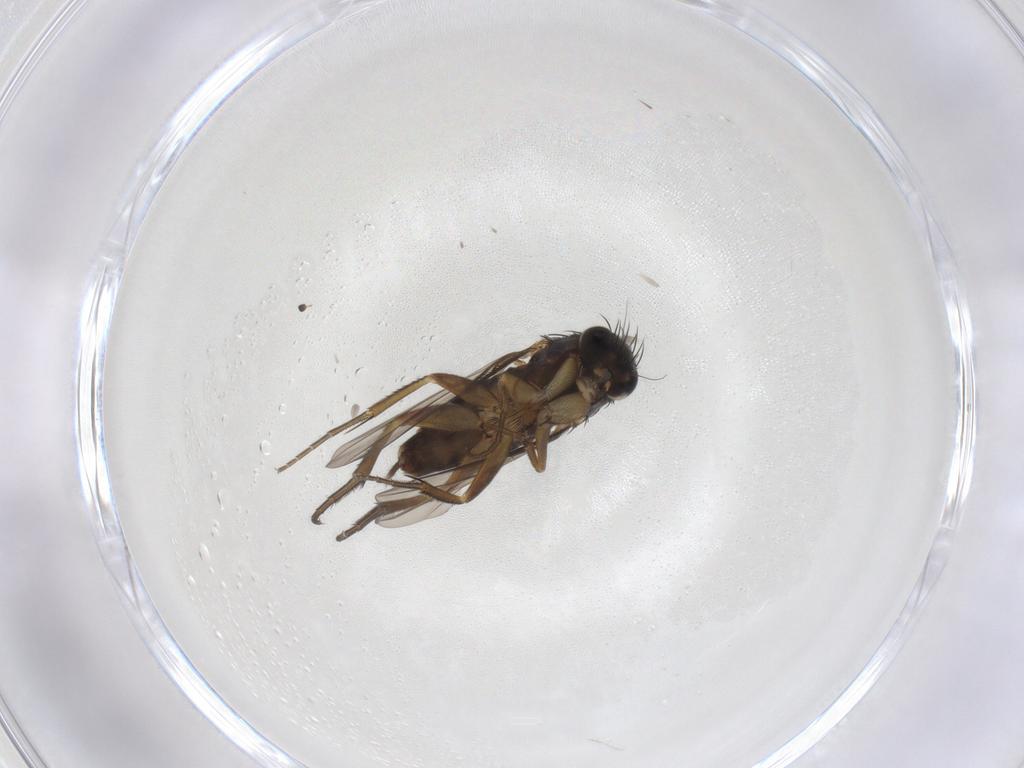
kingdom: Animalia
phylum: Arthropoda
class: Insecta
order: Diptera
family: Phoridae
